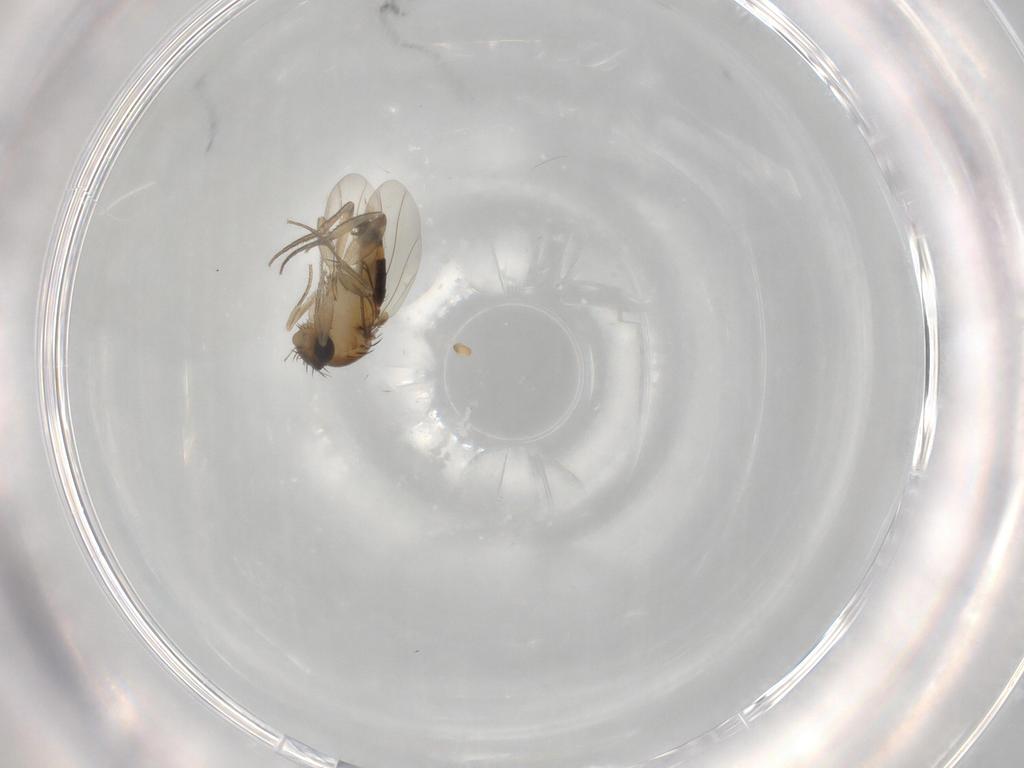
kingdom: Animalia
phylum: Arthropoda
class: Insecta
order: Diptera
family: Phoridae
